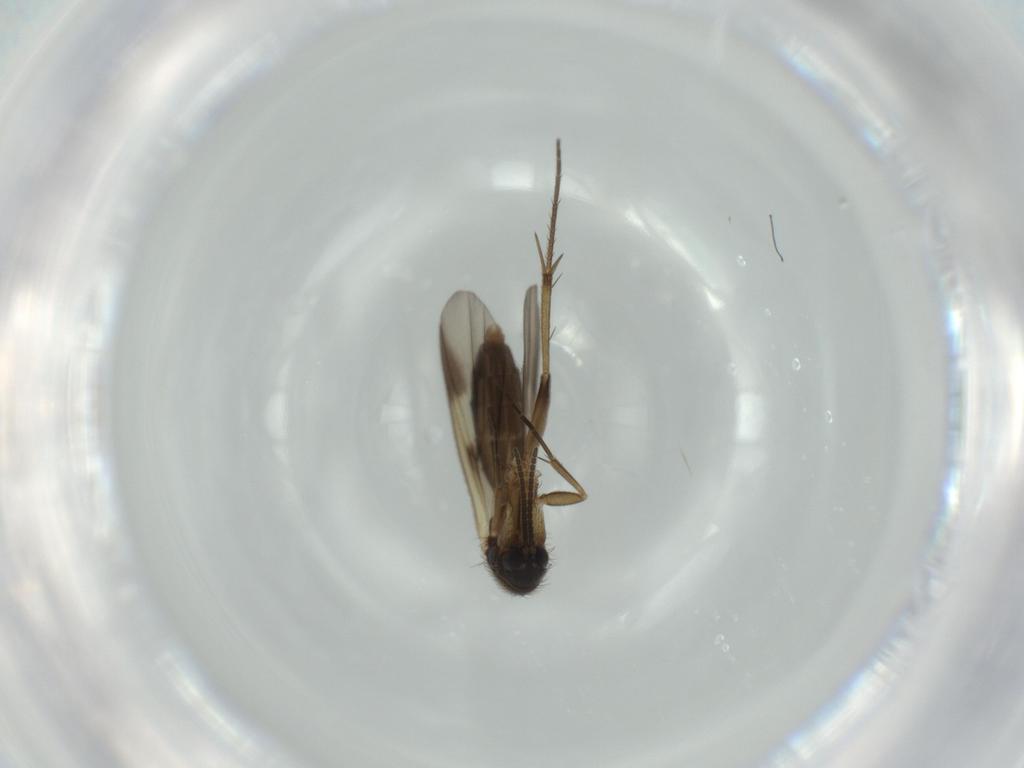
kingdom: Animalia
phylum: Arthropoda
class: Insecta
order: Diptera
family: Mycetophilidae
